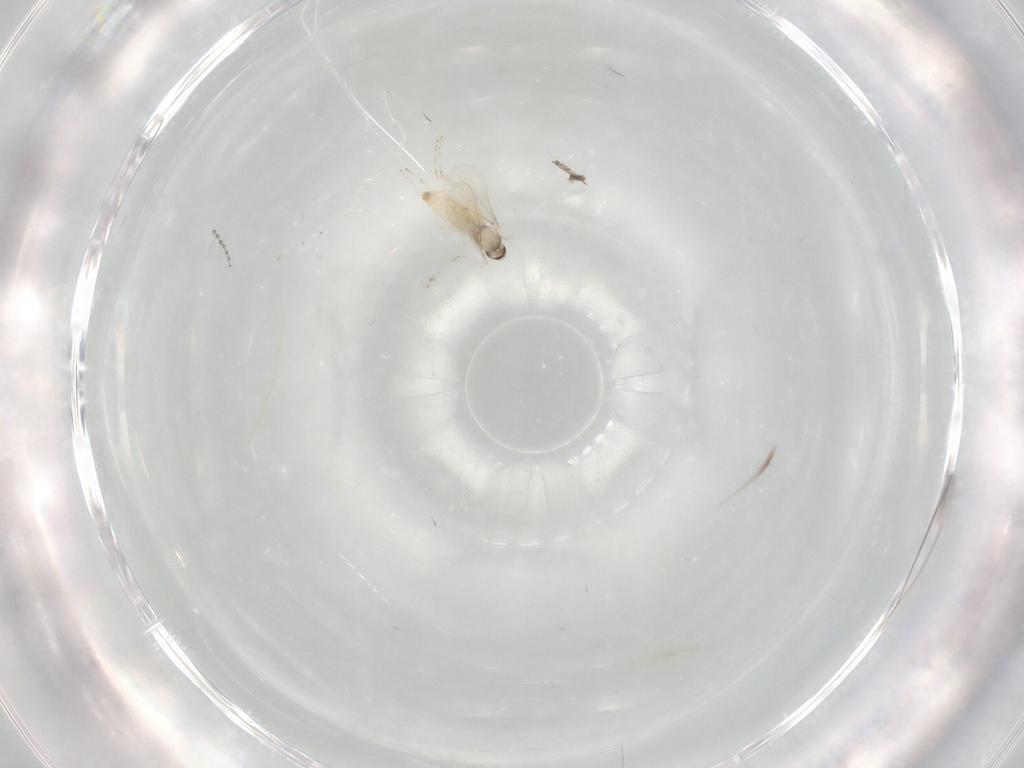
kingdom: Animalia
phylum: Arthropoda
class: Insecta
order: Diptera
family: Cecidomyiidae
